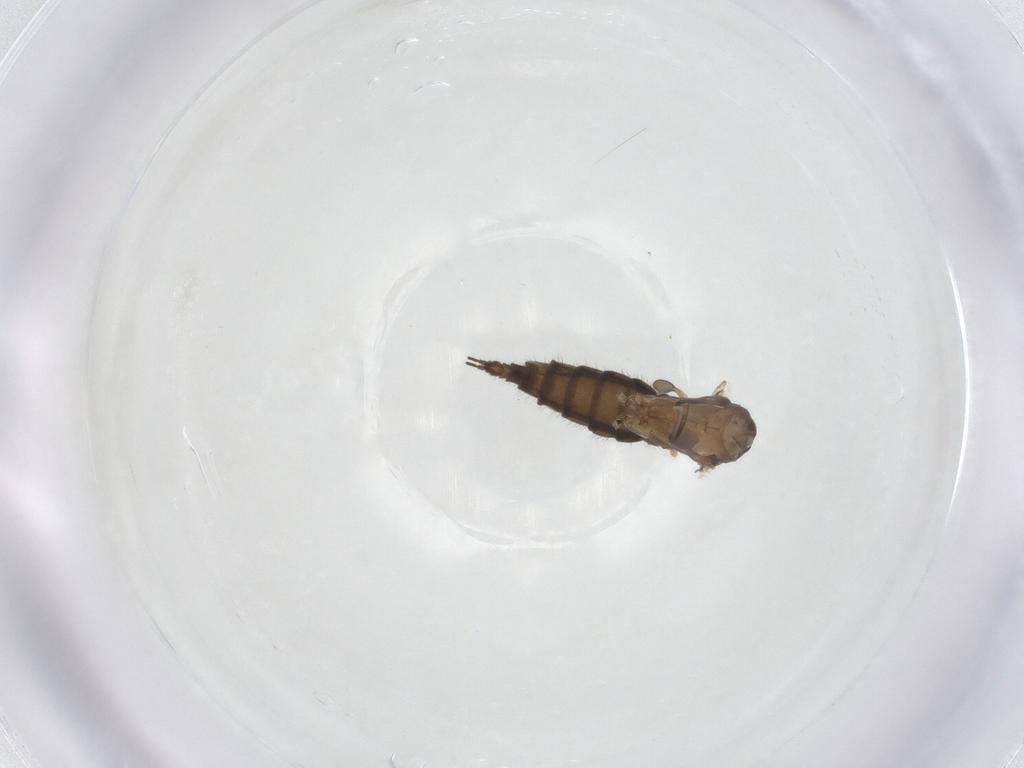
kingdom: Animalia
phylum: Arthropoda
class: Insecta
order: Diptera
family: Sciaridae
